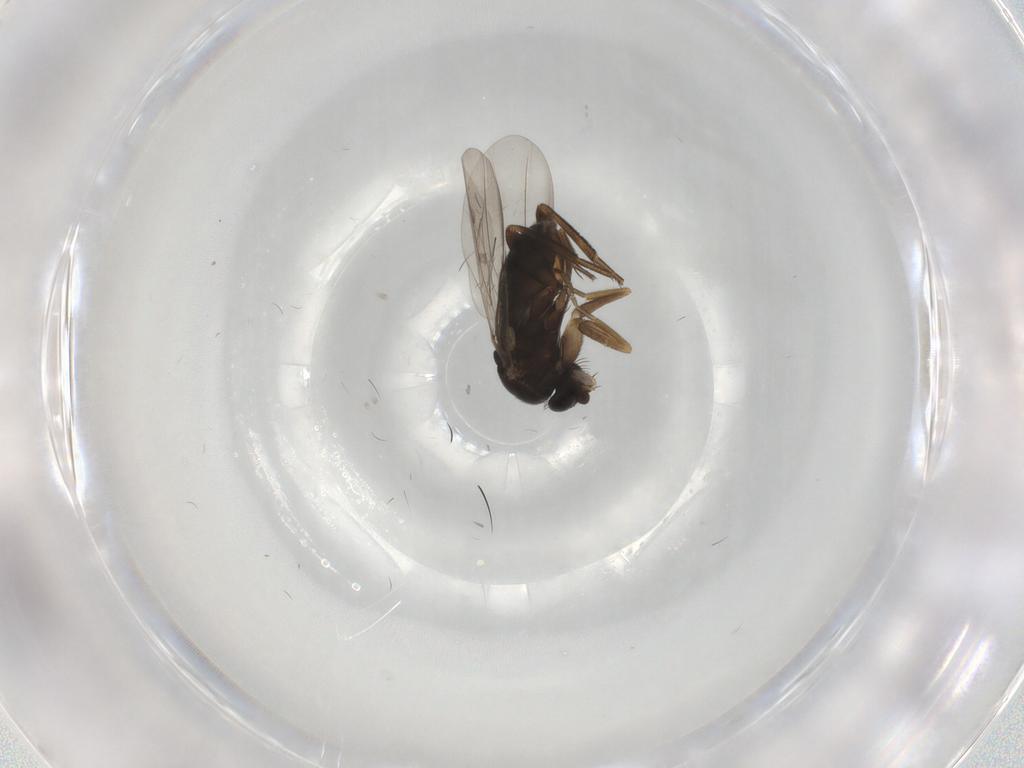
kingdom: Animalia
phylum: Arthropoda
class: Insecta
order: Diptera
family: Phoridae
